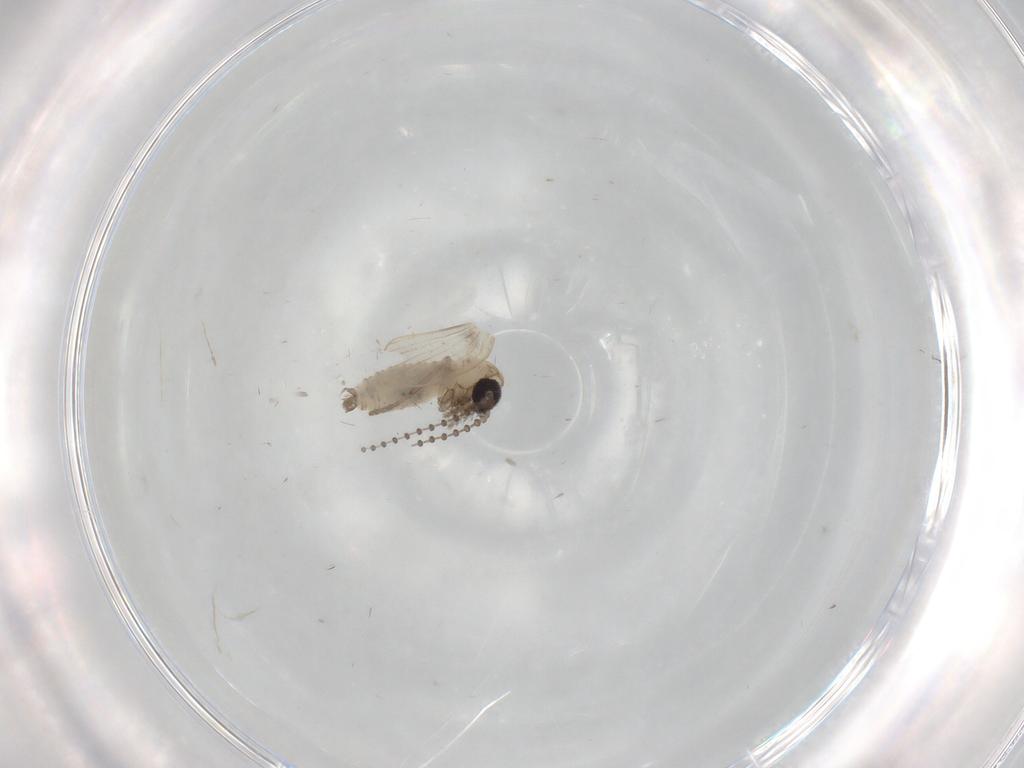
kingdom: Animalia
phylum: Arthropoda
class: Insecta
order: Diptera
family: Psychodidae
